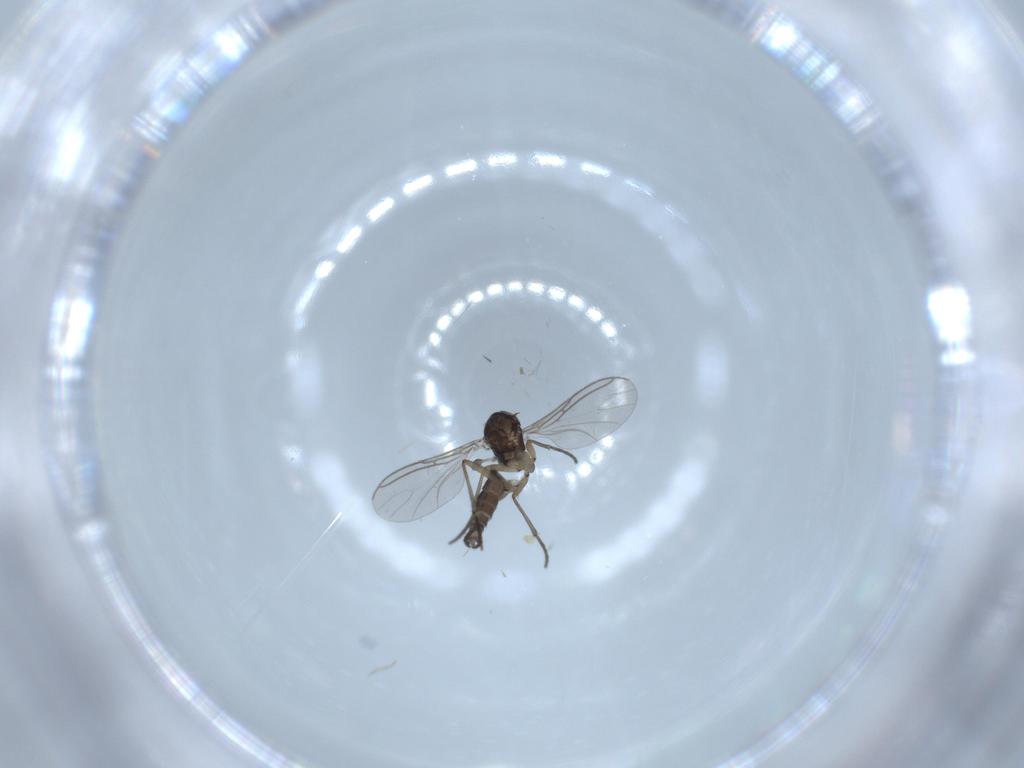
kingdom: Animalia
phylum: Arthropoda
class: Insecta
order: Diptera
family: Sciaridae
